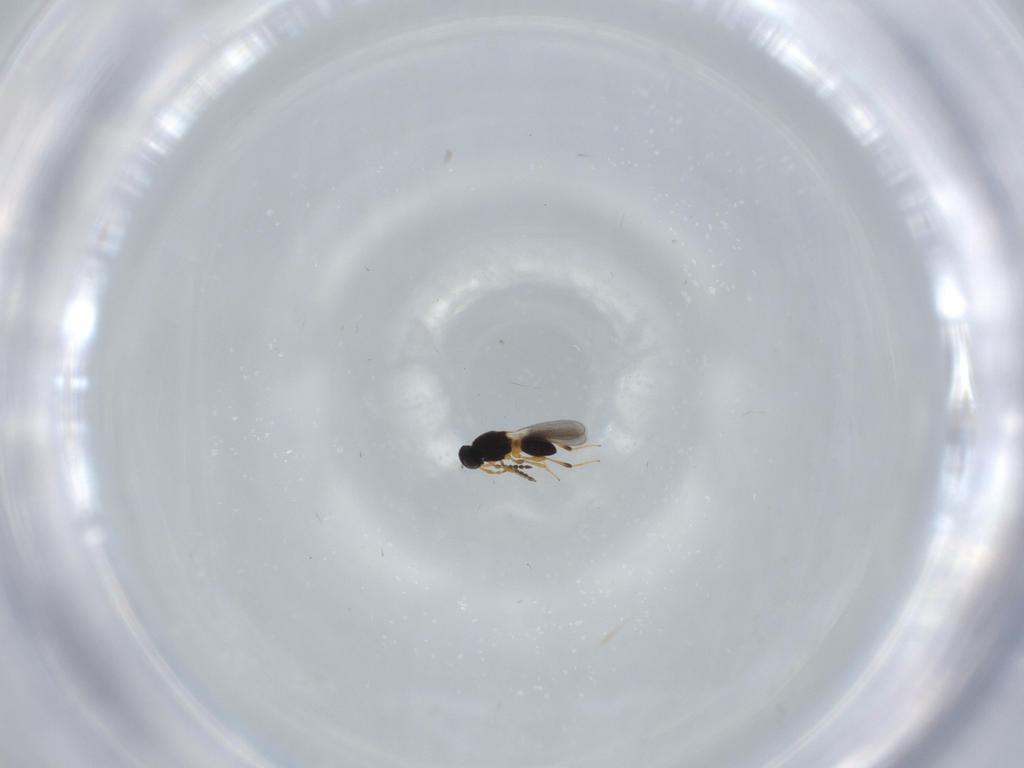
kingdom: Animalia
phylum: Arthropoda
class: Insecta
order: Hymenoptera
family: Platygastridae
